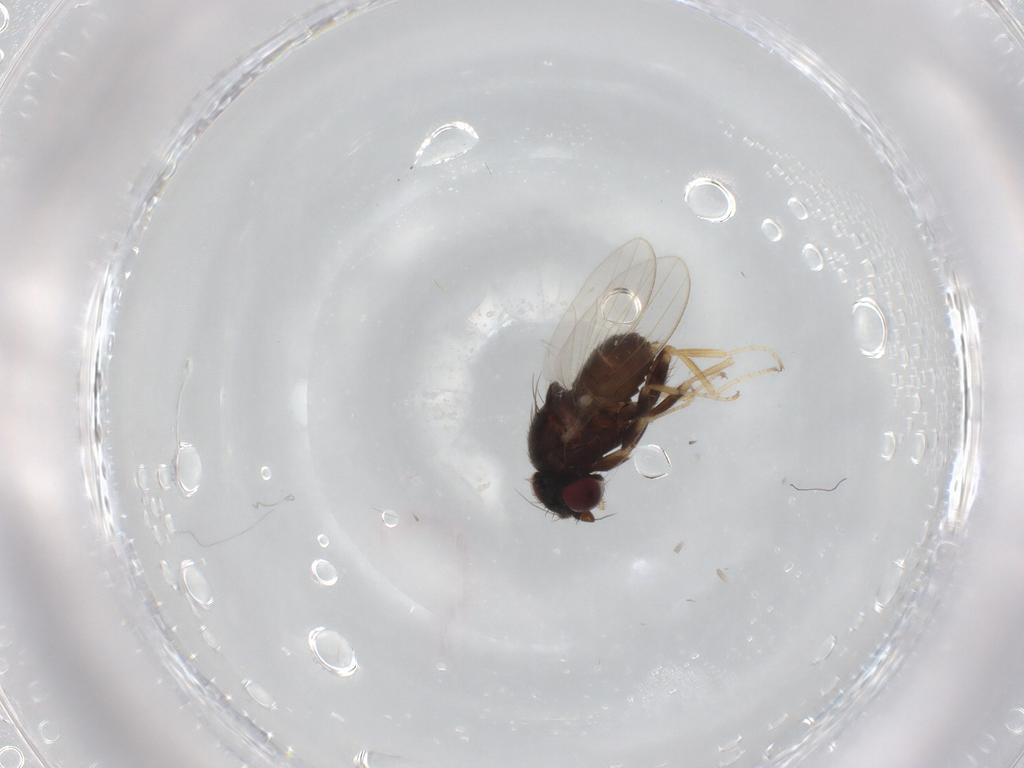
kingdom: Animalia
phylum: Arthropoda
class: Insecta
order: Diptera
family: Milichiidae
